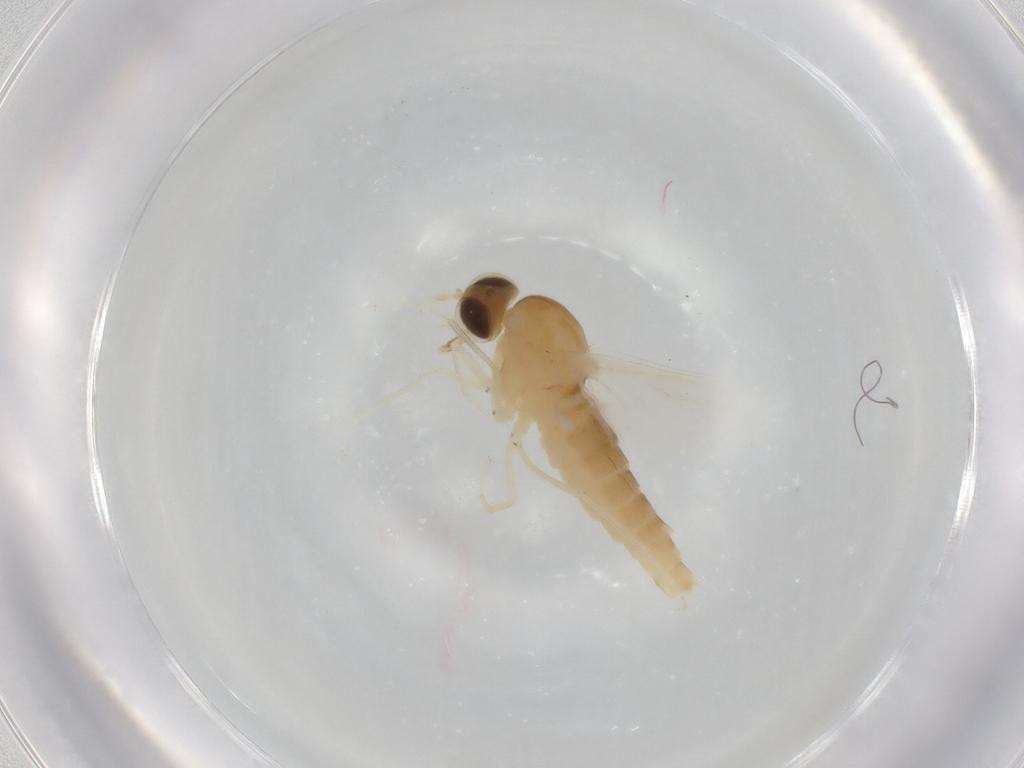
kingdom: Animalia
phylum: Arthropoda
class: Insecta
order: Diptera
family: Scenopinidae
